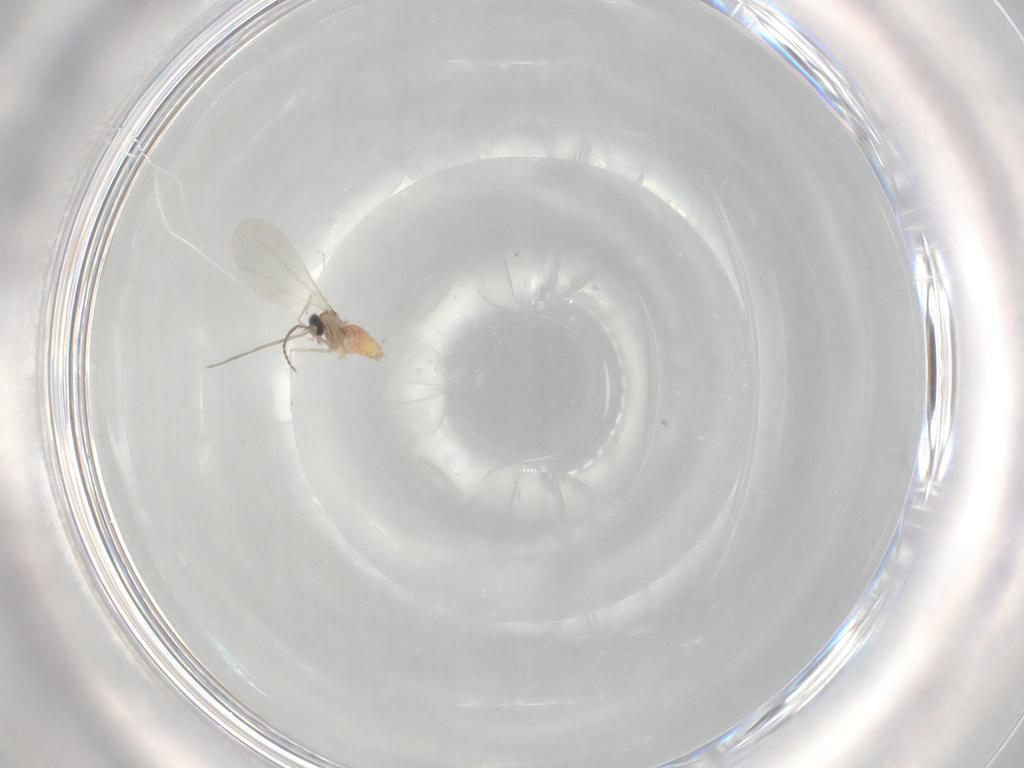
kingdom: Animalia
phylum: Arthropoda
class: Insecta
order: Diptera
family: Cecidomyiidae
